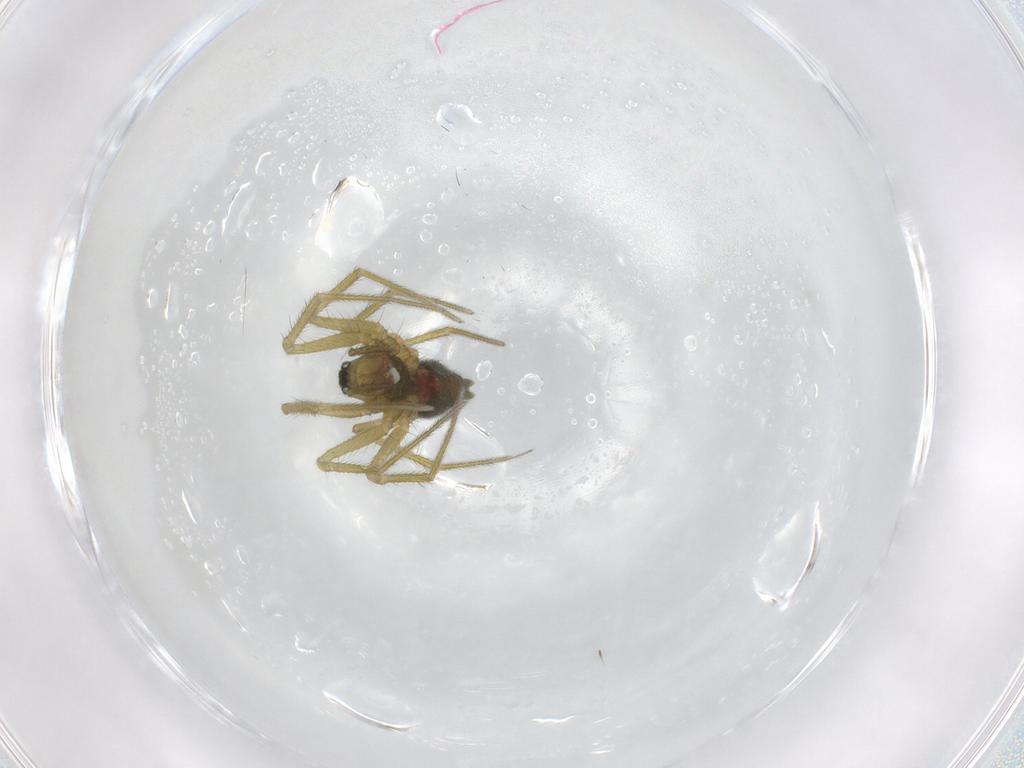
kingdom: Animalia
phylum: Arthropoda
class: Arachnida
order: Araneae
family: Linyphiidae
